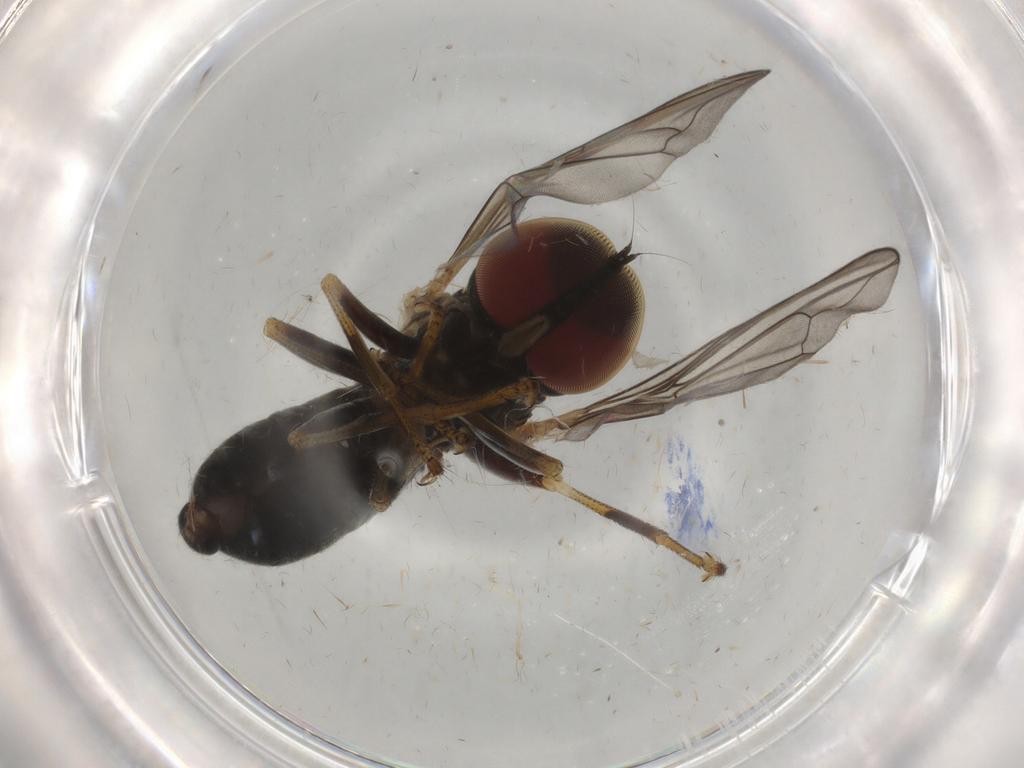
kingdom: Animalia
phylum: Arthropoda
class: Insecta
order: Diptera
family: Pipunculidae
